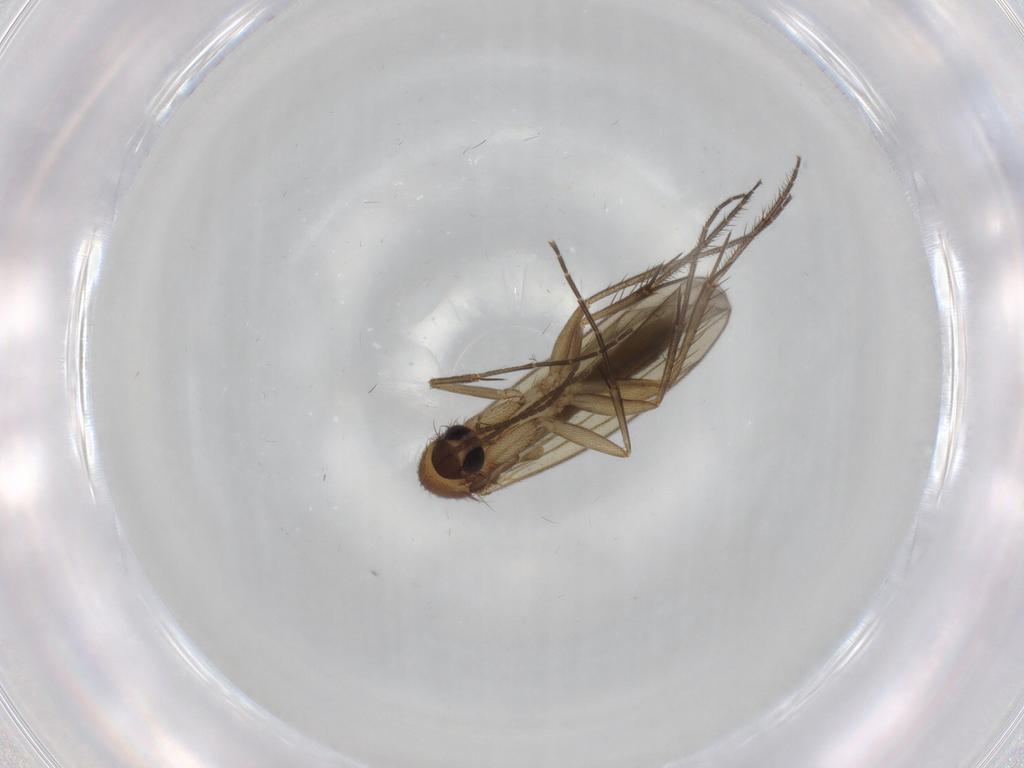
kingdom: Animalia
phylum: Arthropoda
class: Insecta
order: Diptera
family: Mycetophilidae
